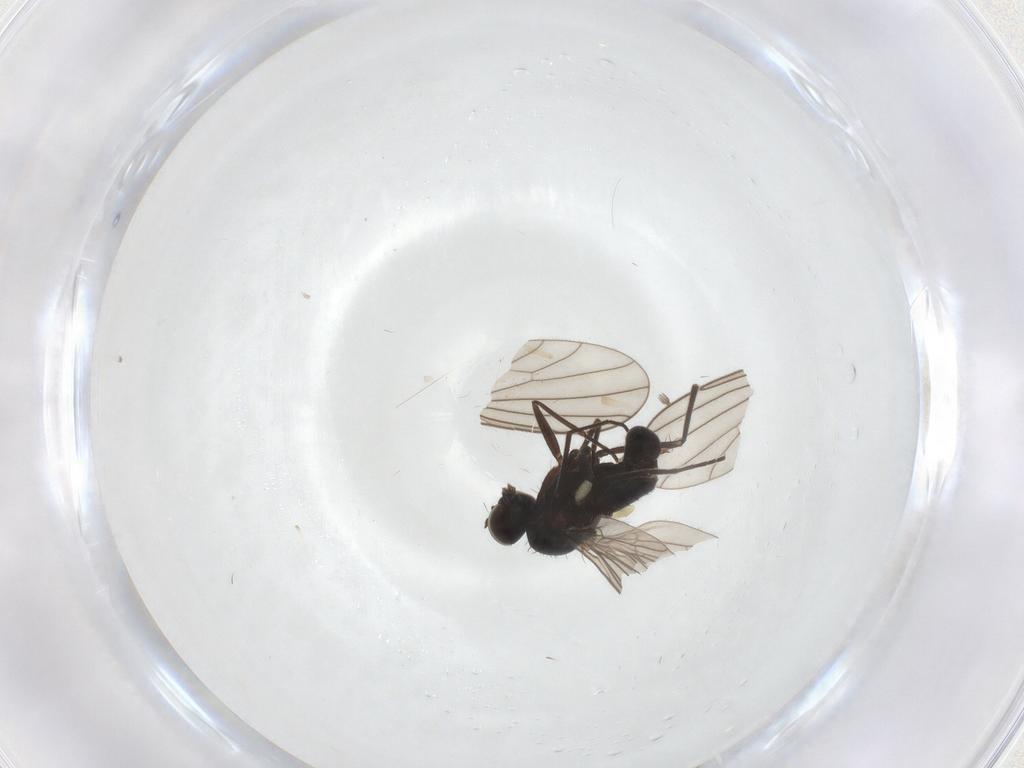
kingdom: Animalia
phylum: Arthropoda
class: Insecta
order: Diptera
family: Dolichopodidae
